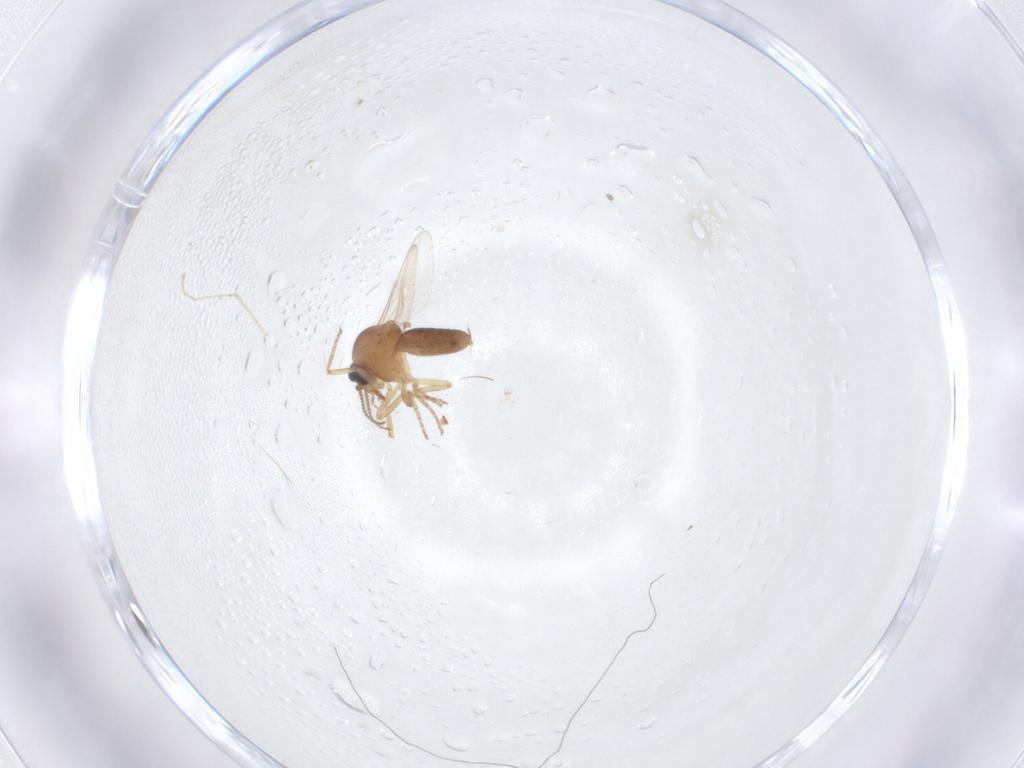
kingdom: Animalia
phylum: Arthropoda
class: Insecta
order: Diptera
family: Ceratopogonidae
